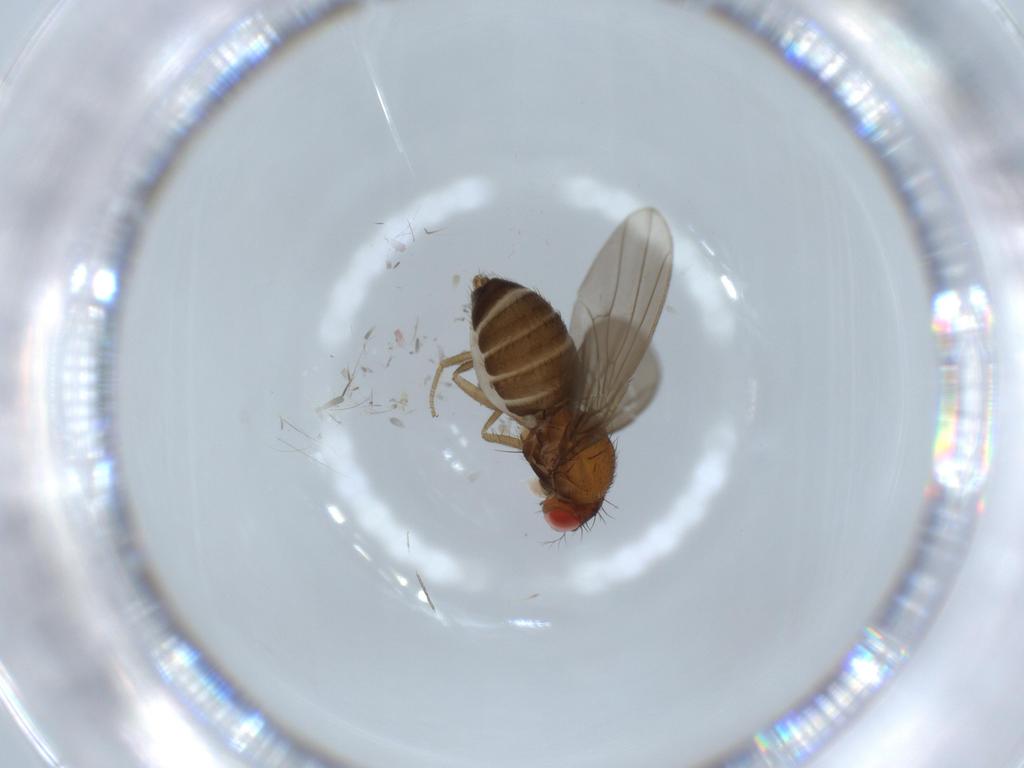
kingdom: Animalia
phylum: Arthropoda
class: Insecta
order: Diptera
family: Drosophilidae
